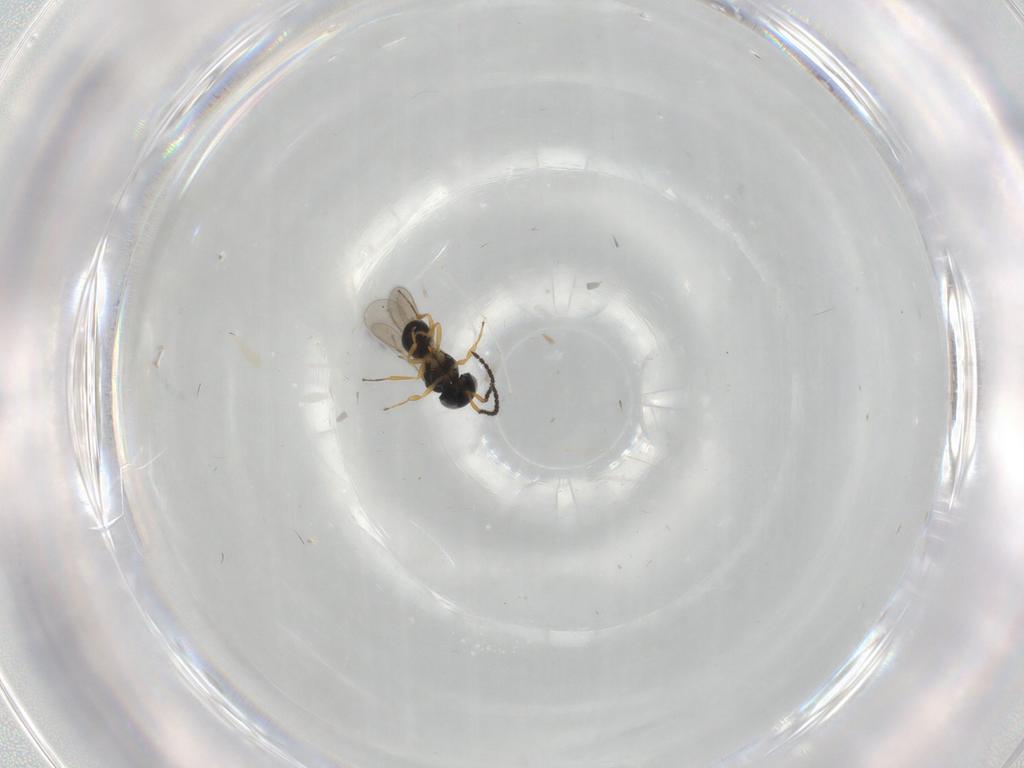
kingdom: Animalia
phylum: Arthropoda
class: Insecta
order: Hymenoptera
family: Scelionidae
